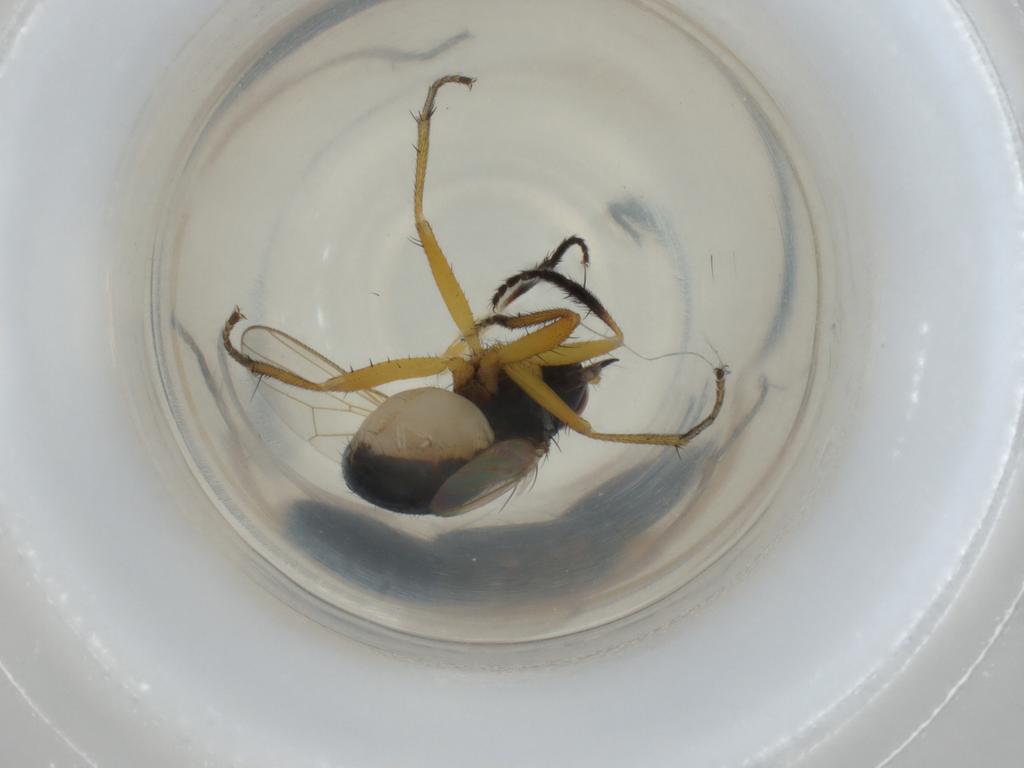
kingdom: Animalia
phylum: Arthropoda
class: Insecta
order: Diptera
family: Muscidae
